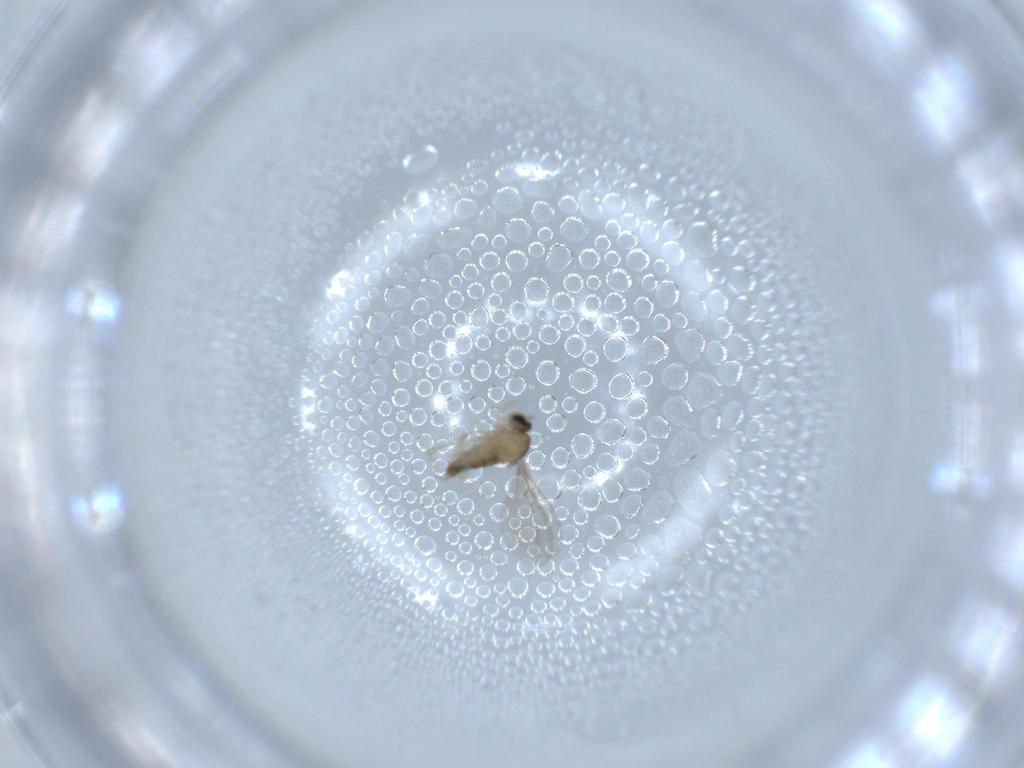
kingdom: Animalia
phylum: Arthropoda
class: Insecta
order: Diptera
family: Cecidomyiidae
